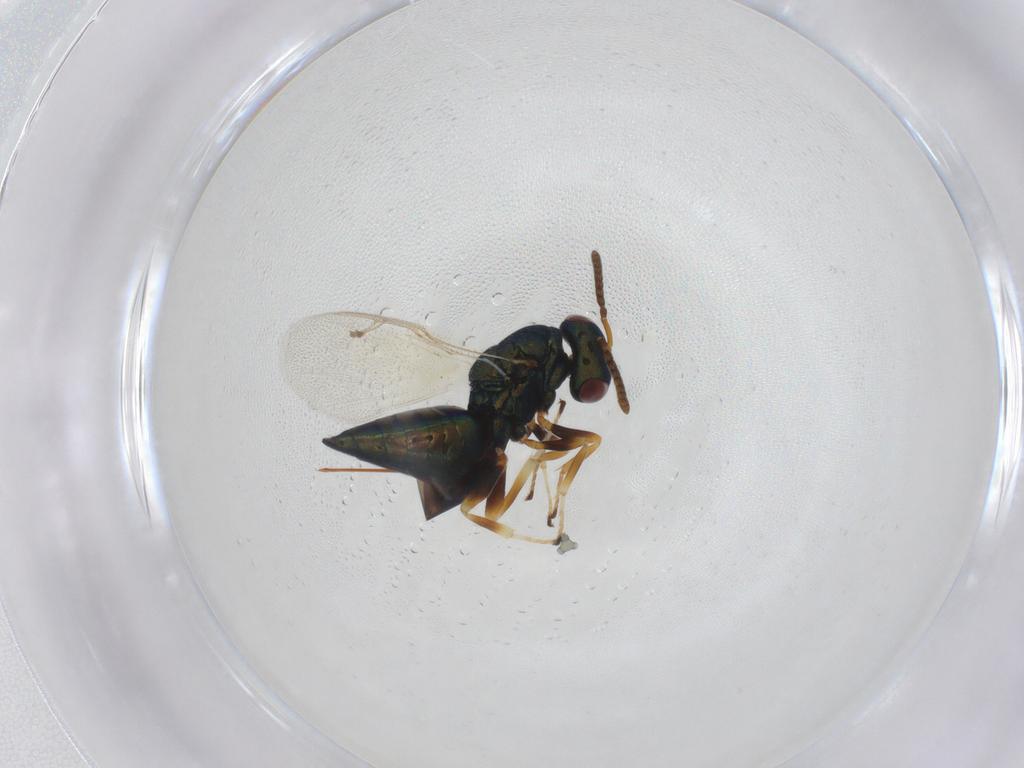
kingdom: Animalia
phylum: Arthropoda
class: Insecta
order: Hymenoptera
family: Pteromalidae
